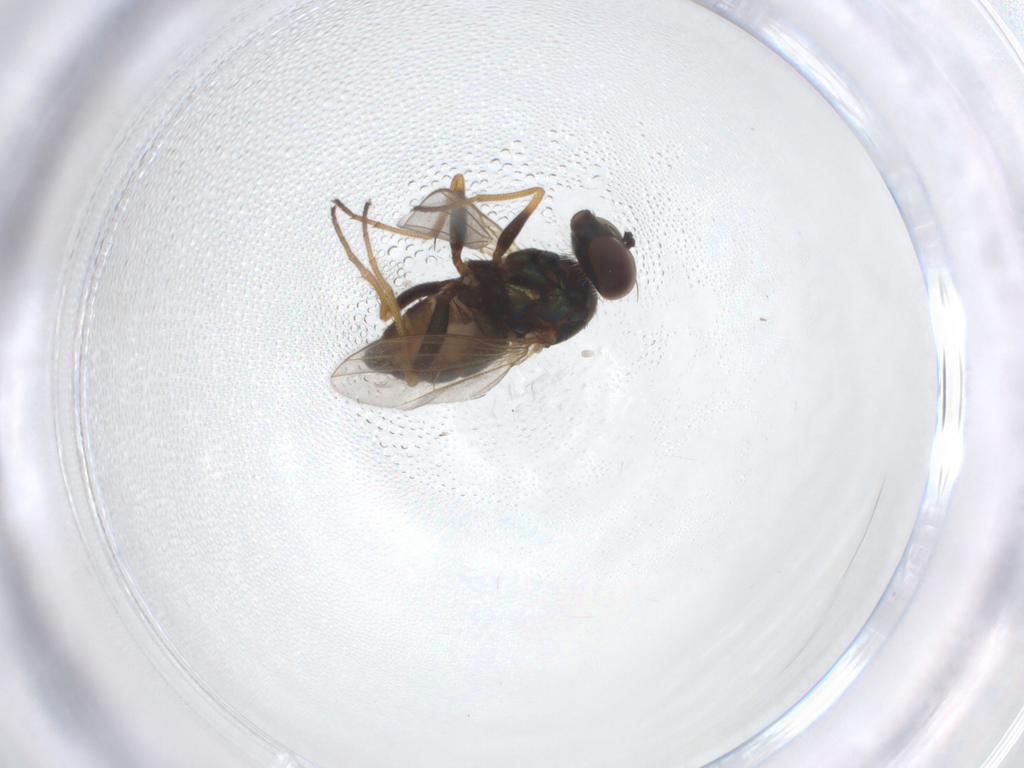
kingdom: Animalia
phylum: Arthropoda
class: Insecta
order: Diptera
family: Dolichopodidae
